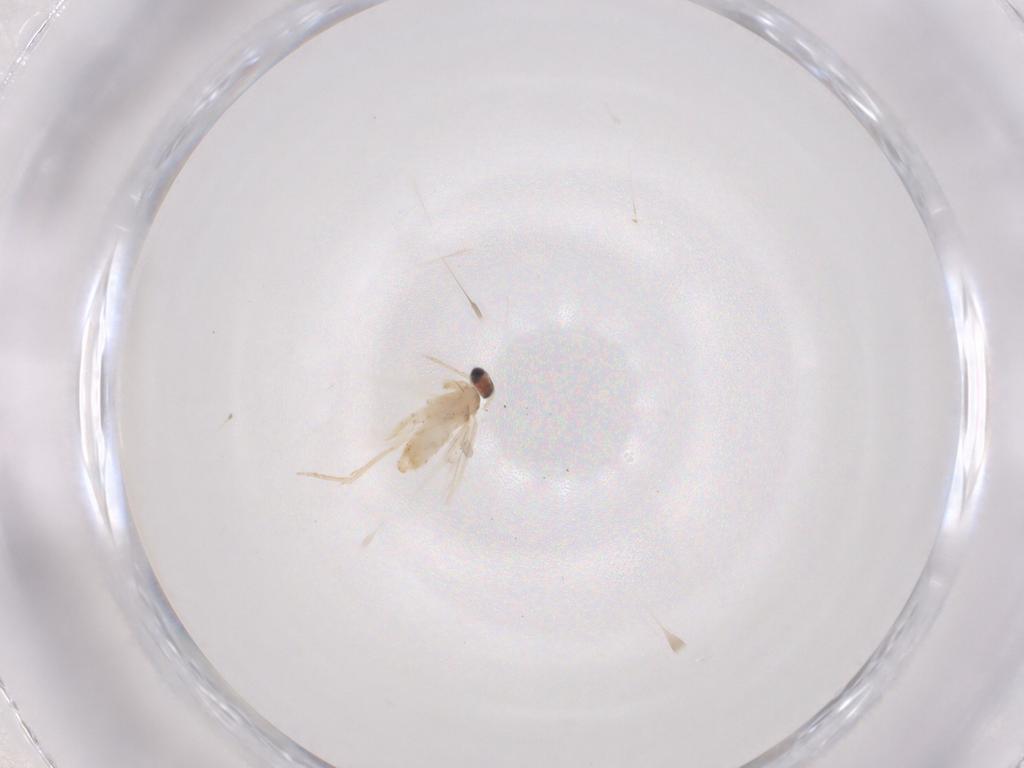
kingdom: Animalia
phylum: Arthropoda
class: Insecta
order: Lepidoptera
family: Nepticulidae
